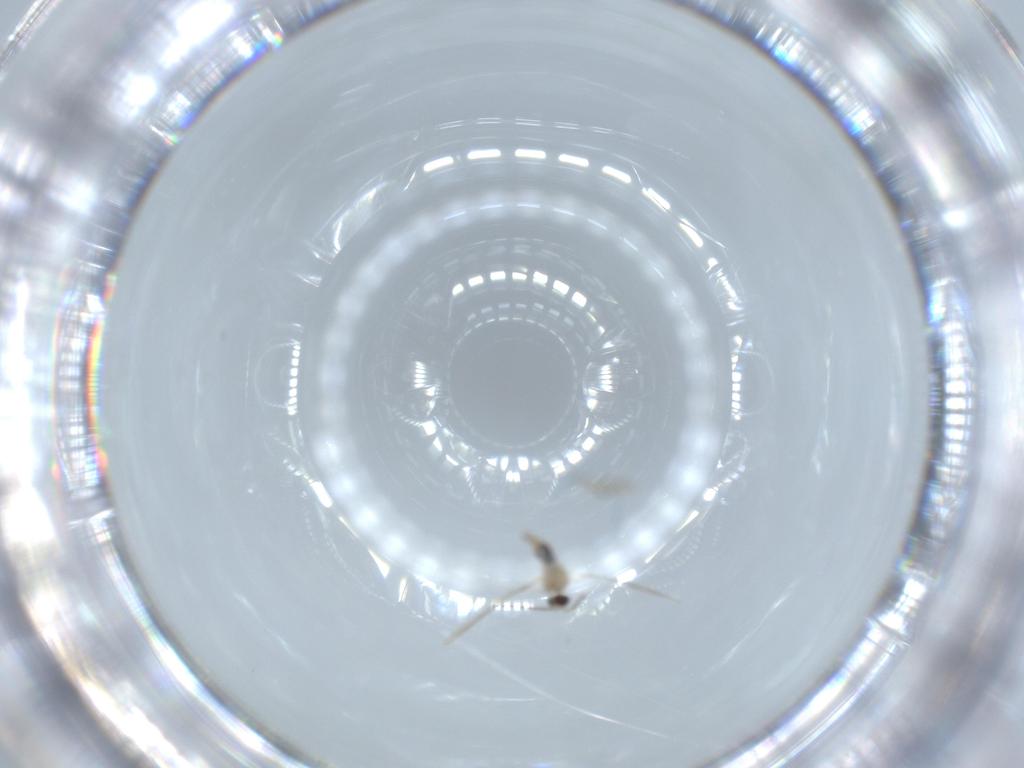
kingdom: Animalia
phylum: Arthropoda
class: Insecta
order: Diptera
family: Cecidomyiidae
